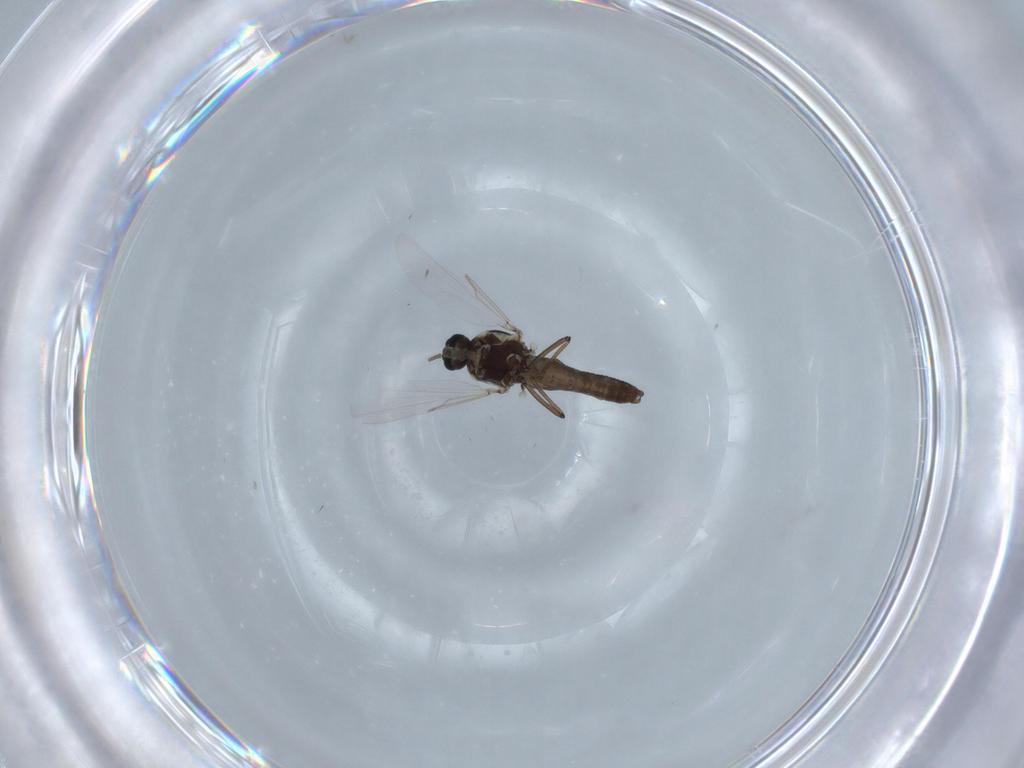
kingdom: Animalia
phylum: Arthropoda
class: Insecta
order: Diptera
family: Ceratopogonidae
